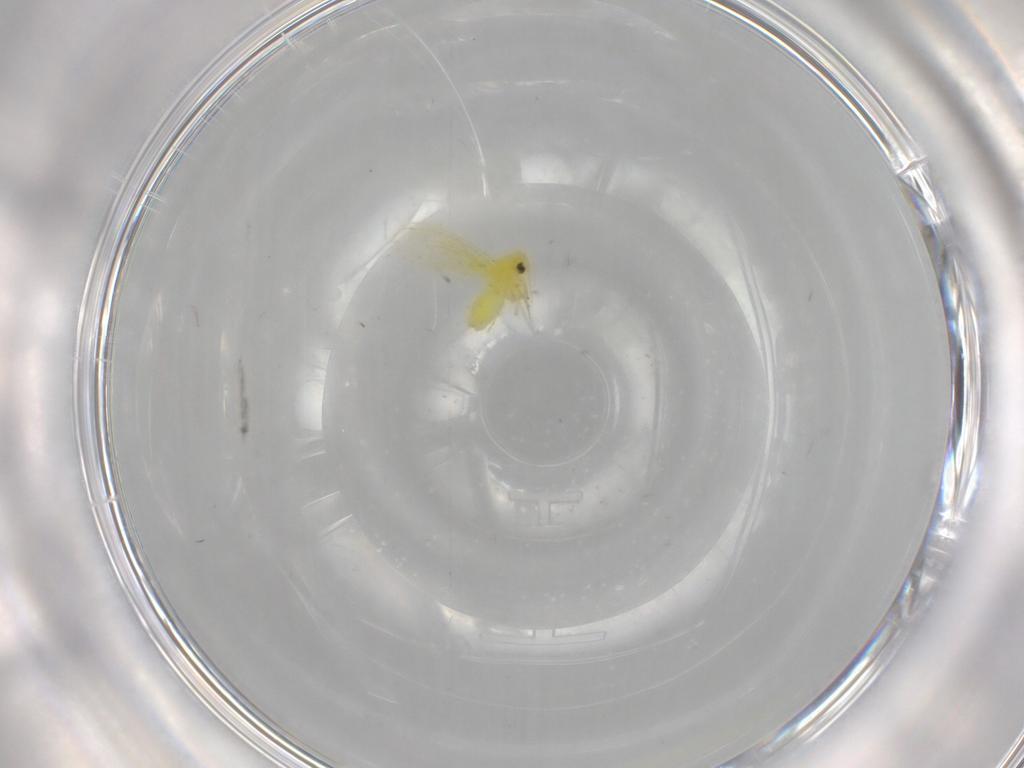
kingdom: Animalia
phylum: Arthropoda
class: Insecta
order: Hemiptera
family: Aleyrodidae
